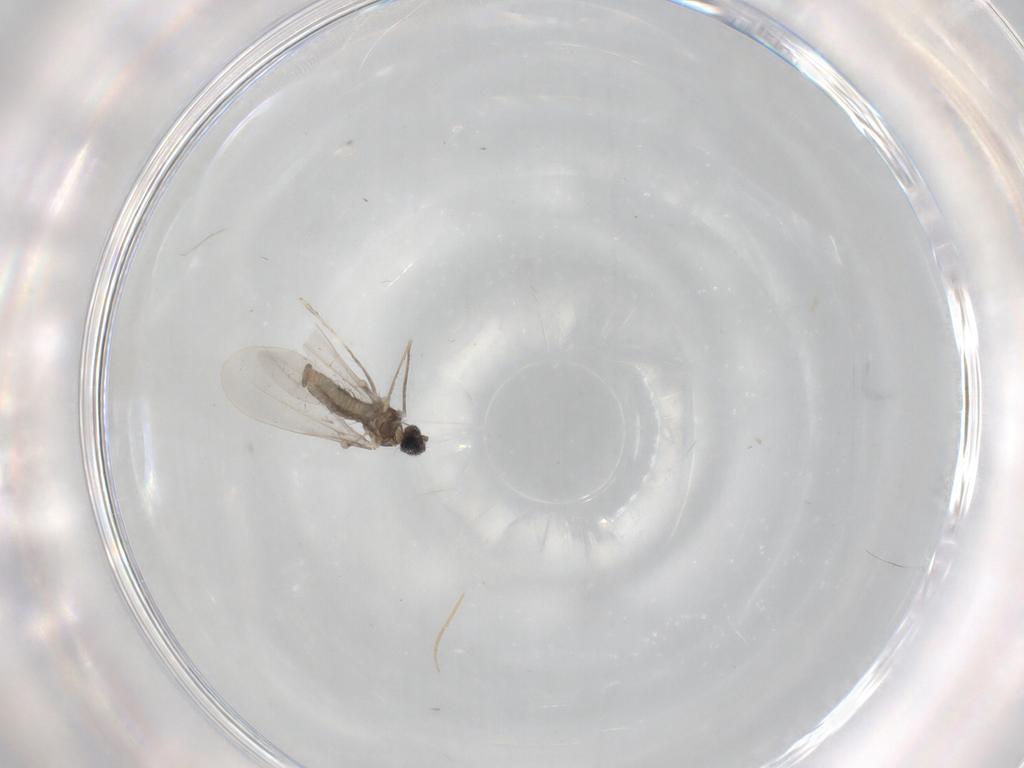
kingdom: Animalia
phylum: Arthropoda
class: Insecta
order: Diptera
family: Cecidomyiidae
